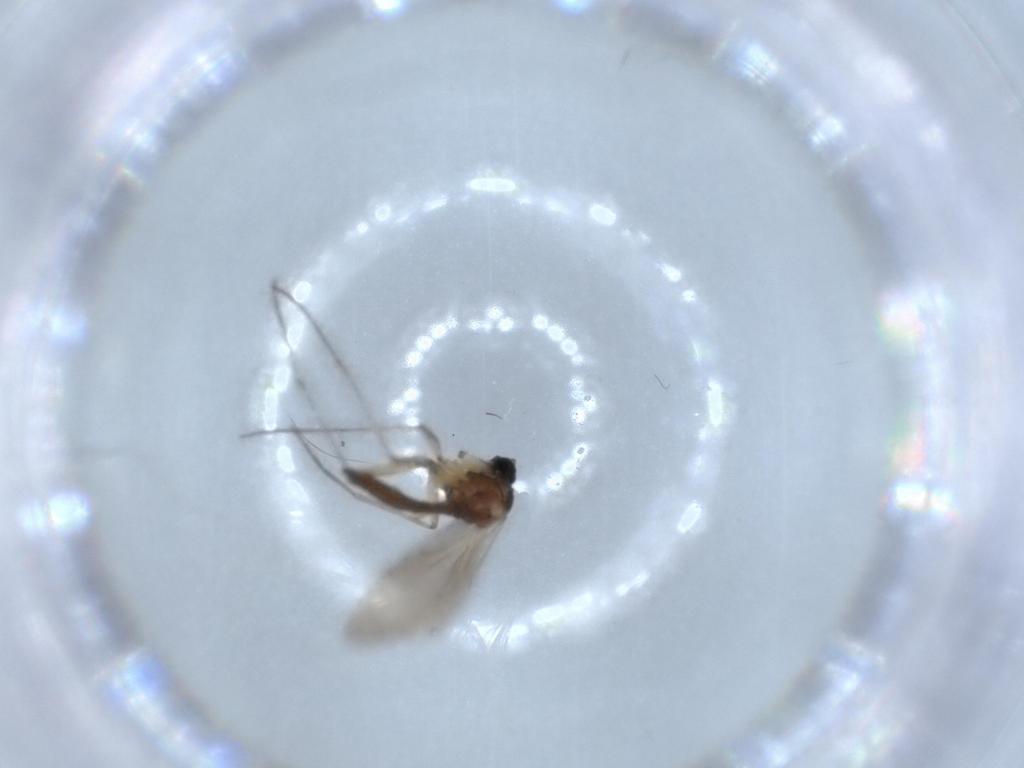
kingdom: Animalia
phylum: Arthropoda
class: Insecta
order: Diptera
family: Sciaridae
